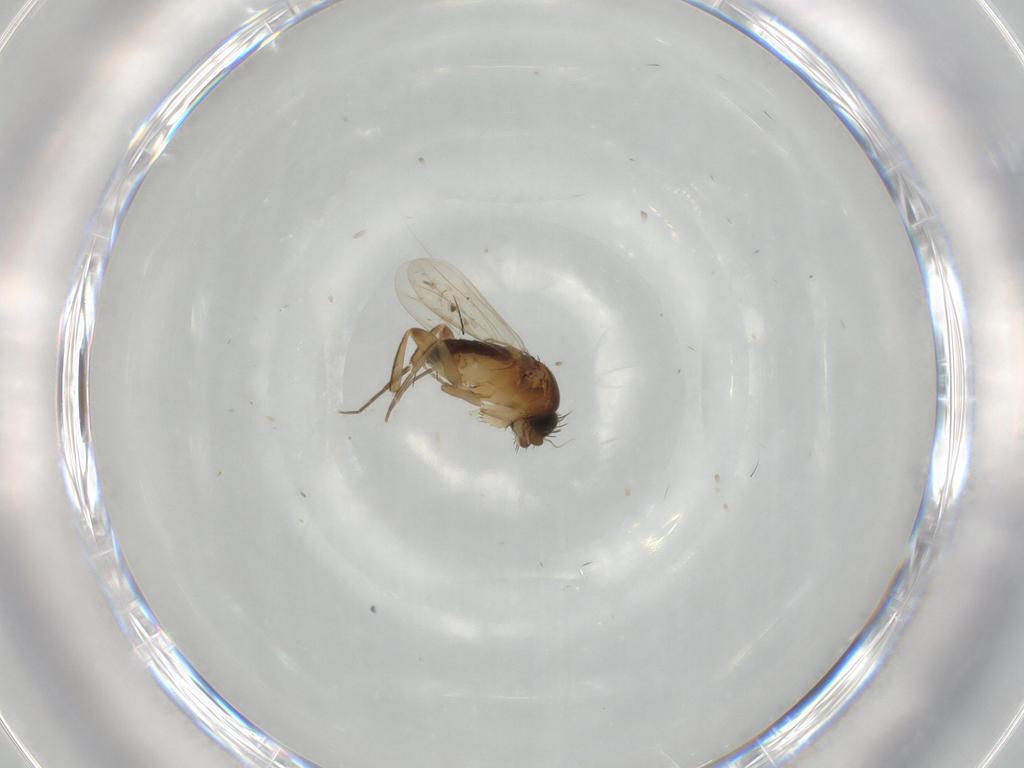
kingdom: Animalia
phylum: Arthropoda
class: Insecta
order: Diptera
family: Phoridae
